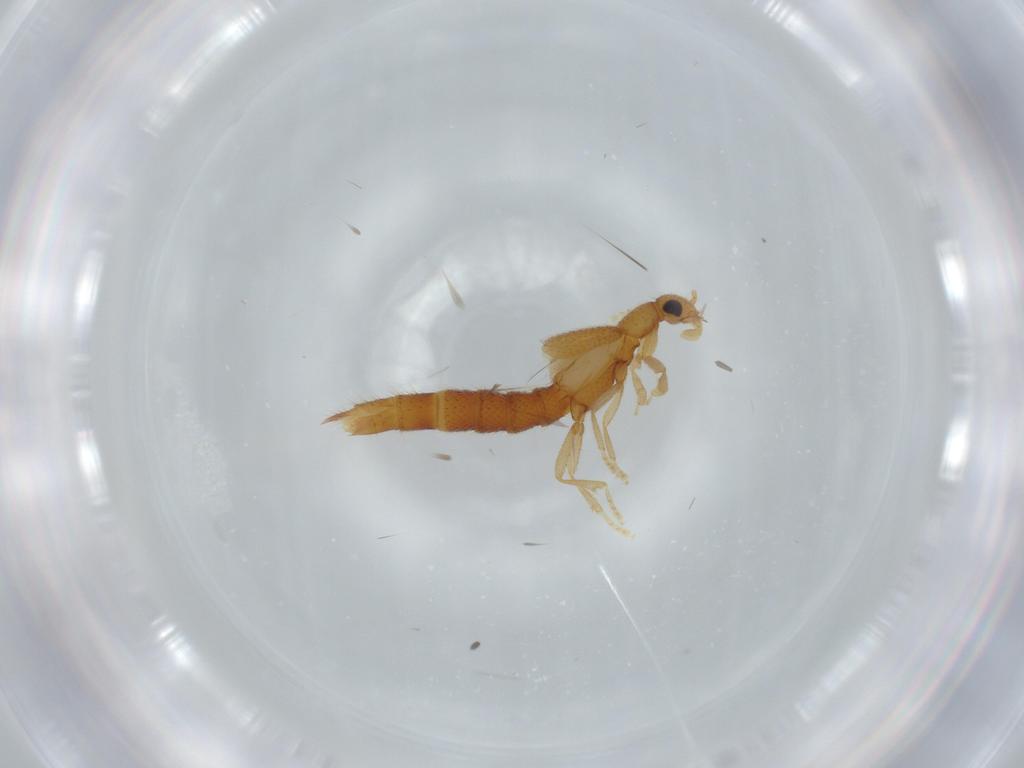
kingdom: Animalia
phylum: Arthropoda
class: Insecta
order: Coleoptera
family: Staphylinidae
